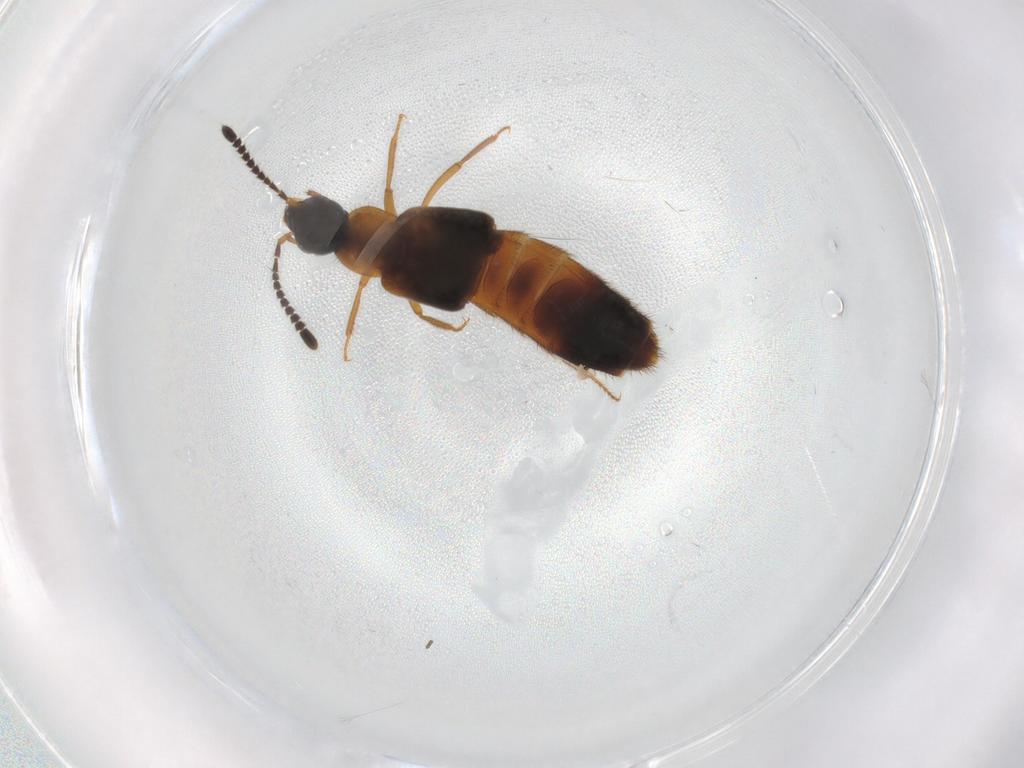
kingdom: Animalia
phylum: Arthropoda
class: Insecta
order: Coleoptera
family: Staphylinidae
